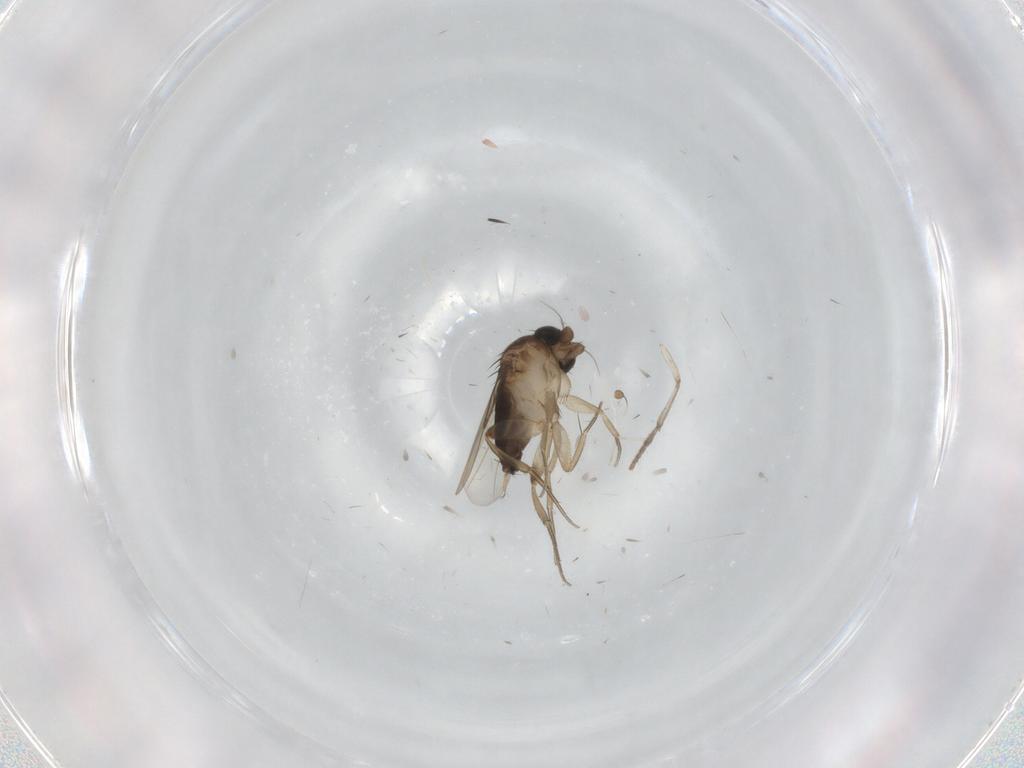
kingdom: Animalia
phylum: Arthropoda
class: Insecta
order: Diptera
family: Phoridae
